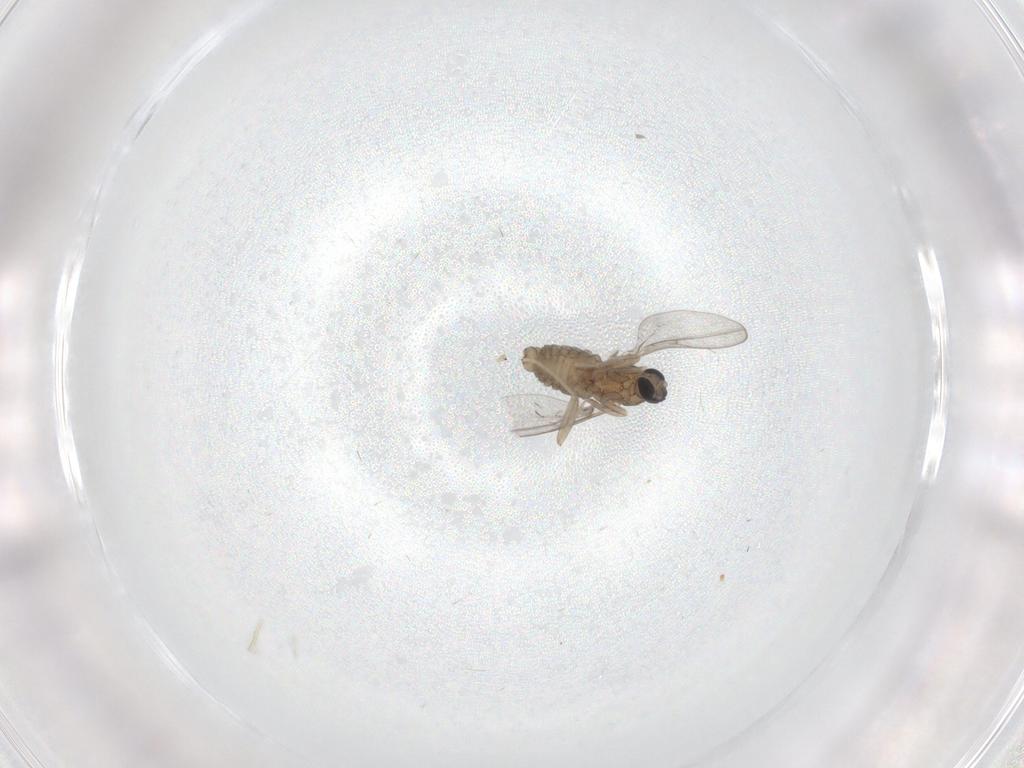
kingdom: Animalia
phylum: Arthropoda
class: Insecta
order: Diptera
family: Cecidomyiidae
